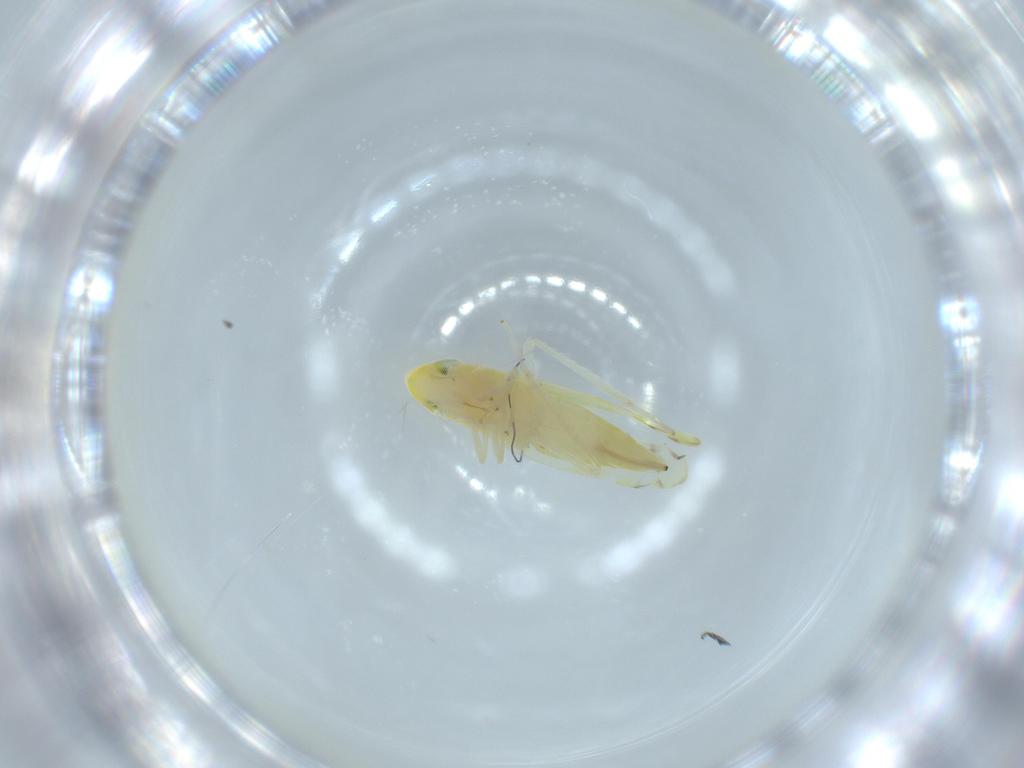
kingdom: Animalia
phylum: Arthropoda
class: Insecta
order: Hemiptera
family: Cicadellidae
